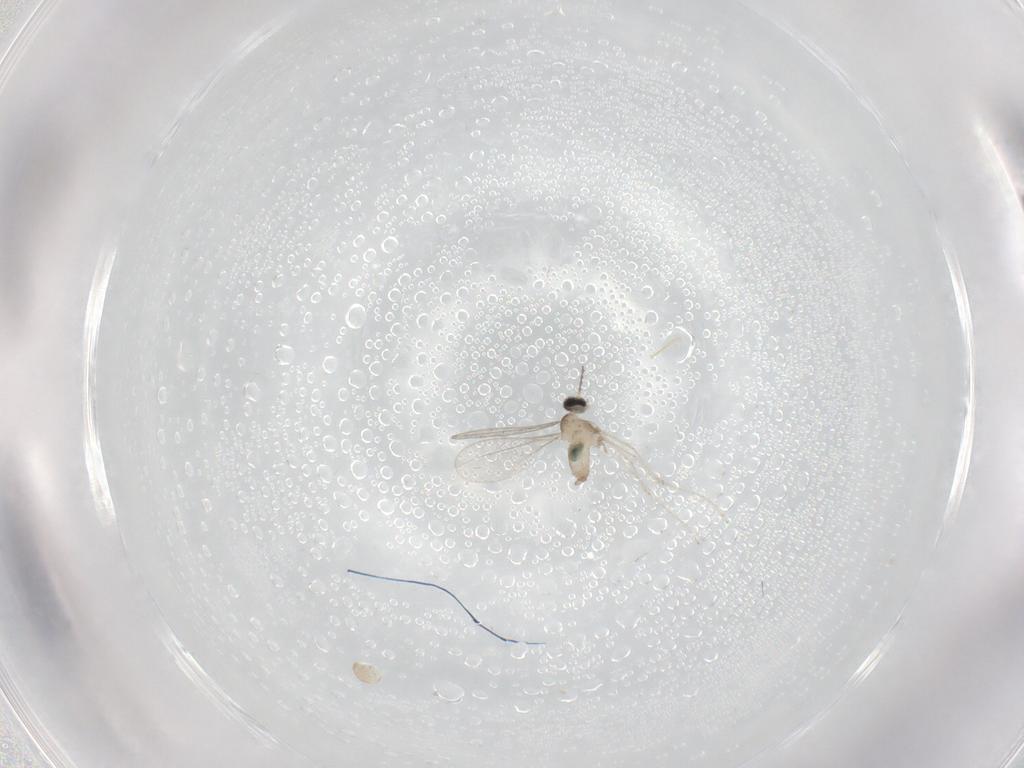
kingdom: Animalia
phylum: Arthropoda
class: Insecta
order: Diptera
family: Cecidomyiidae
